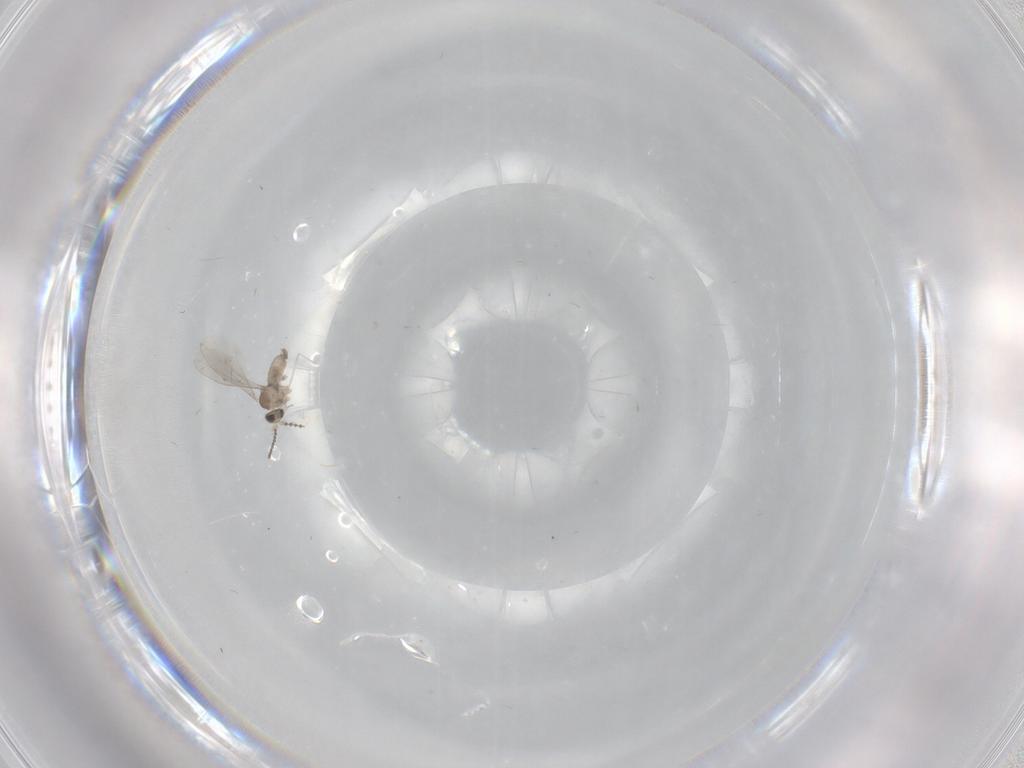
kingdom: Animalia
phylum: Arthropoda
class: Insecta
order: Diptera
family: Cecidomyiidae
